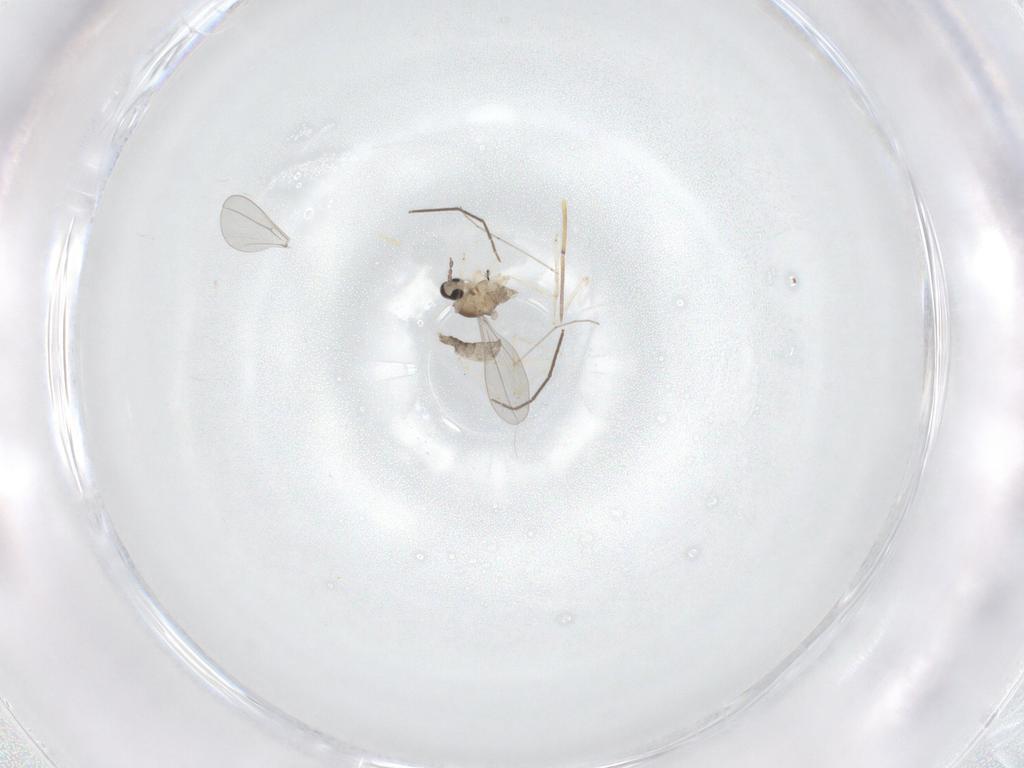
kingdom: Animalia
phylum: Arthropoda
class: Insecta
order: Diptera
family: Cecidomyiidae
